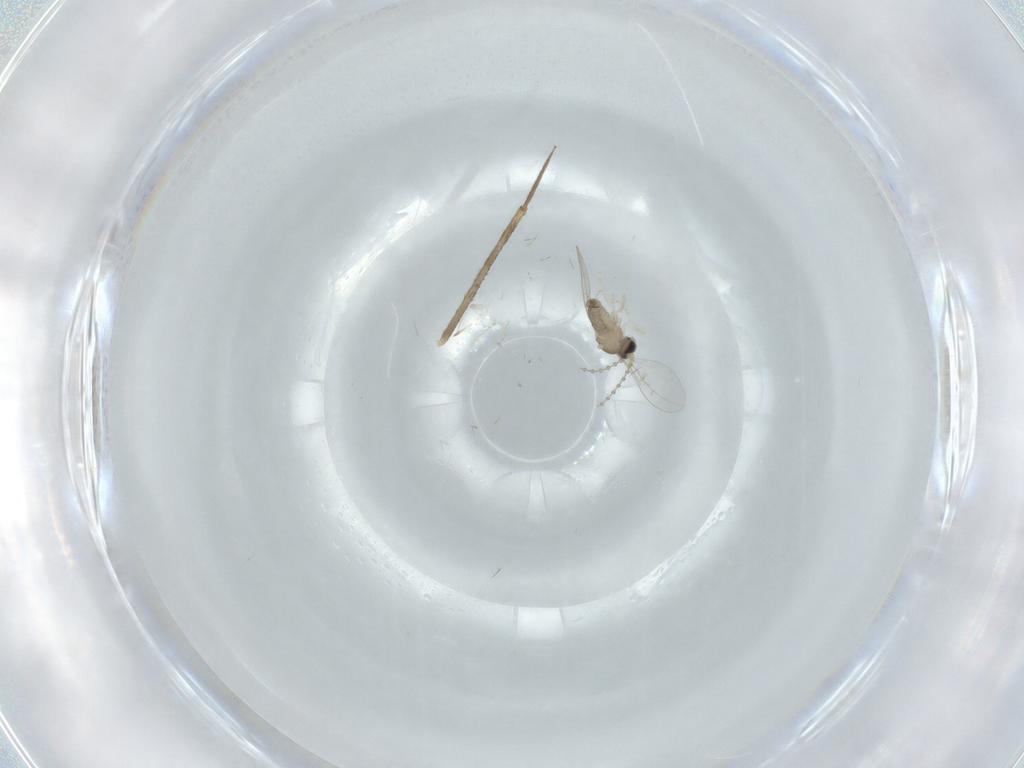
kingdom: Animalia
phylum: Arthropoda
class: Insecta
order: Diptera
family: Cecidomyiidae
